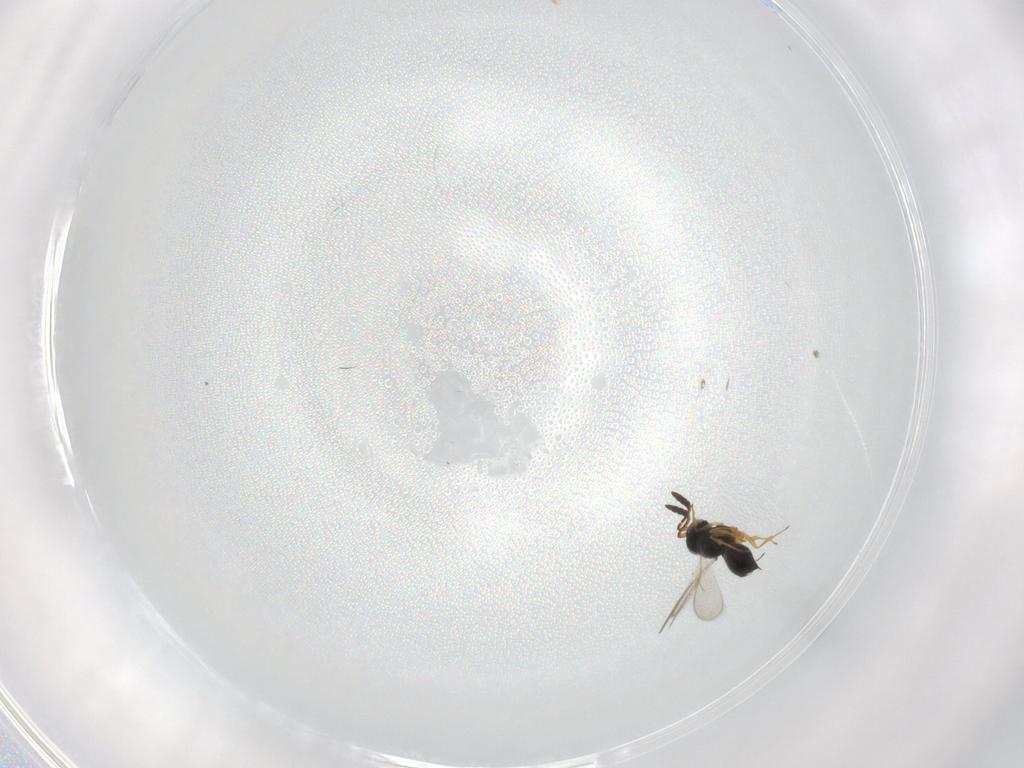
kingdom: Animalia
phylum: Arthropoda
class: Insecta
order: Hymenoptera
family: Scelionidae
